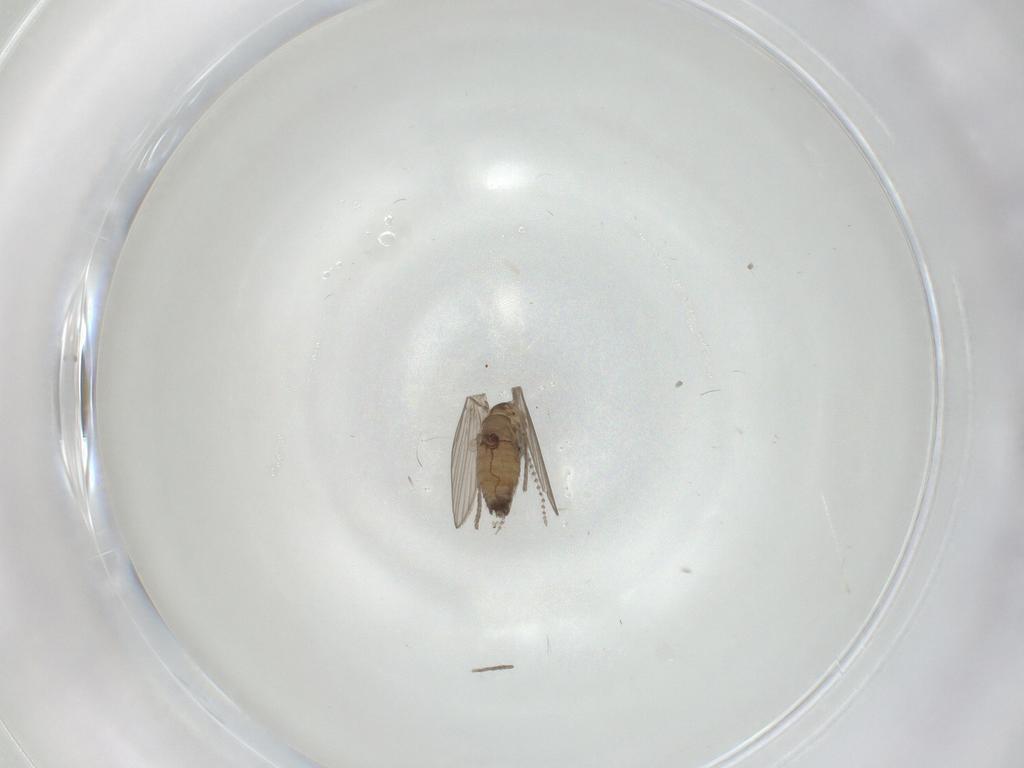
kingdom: Animalia
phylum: Arthropoda
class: Insecta
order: Diptera
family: Psychodidae
